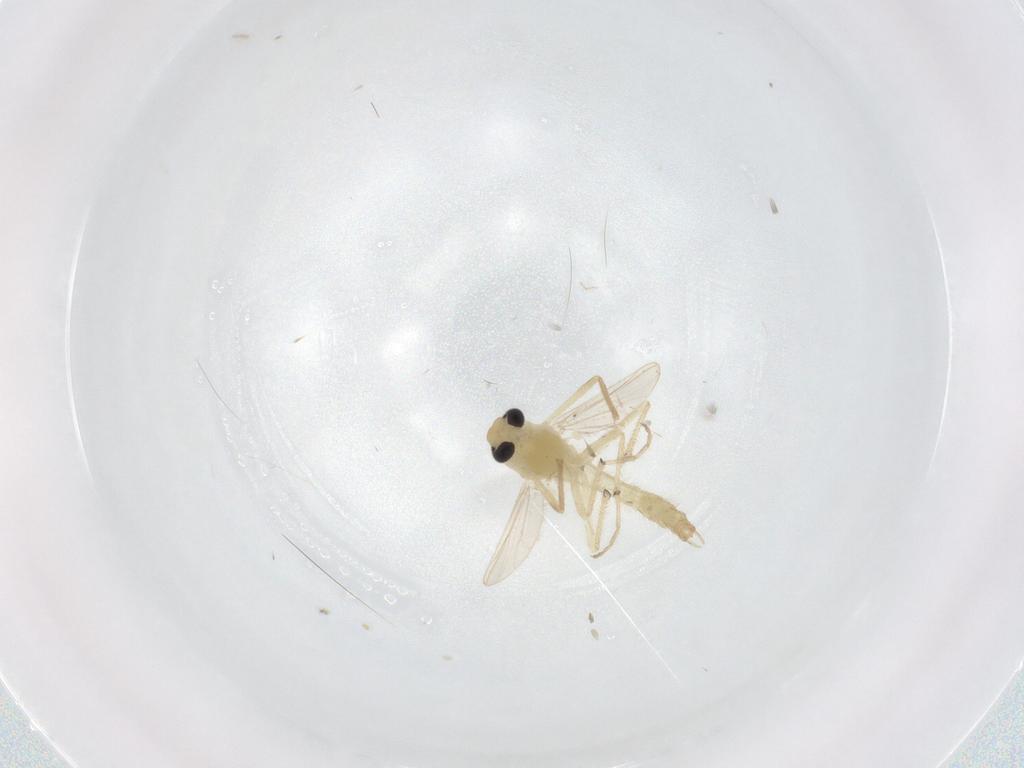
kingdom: Animalia
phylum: Arthropoda
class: Insecta
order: Diptera
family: Chironomidae
